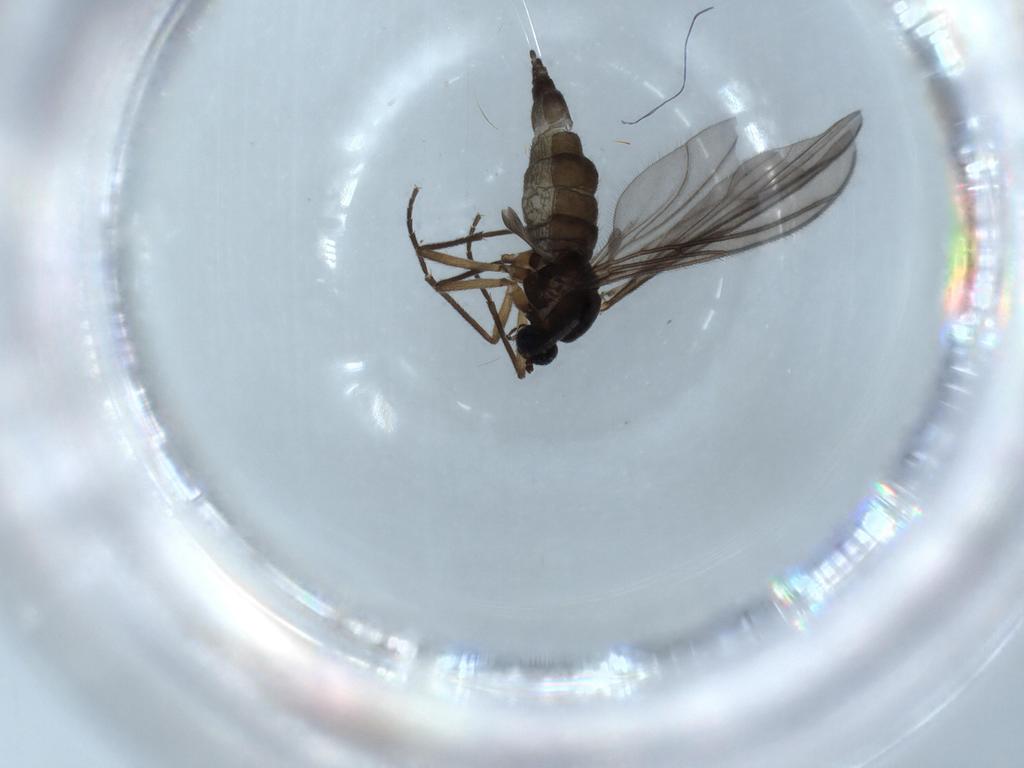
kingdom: Animalia
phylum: Arthropoda
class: Insecta
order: Diptera
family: Sciaridae
